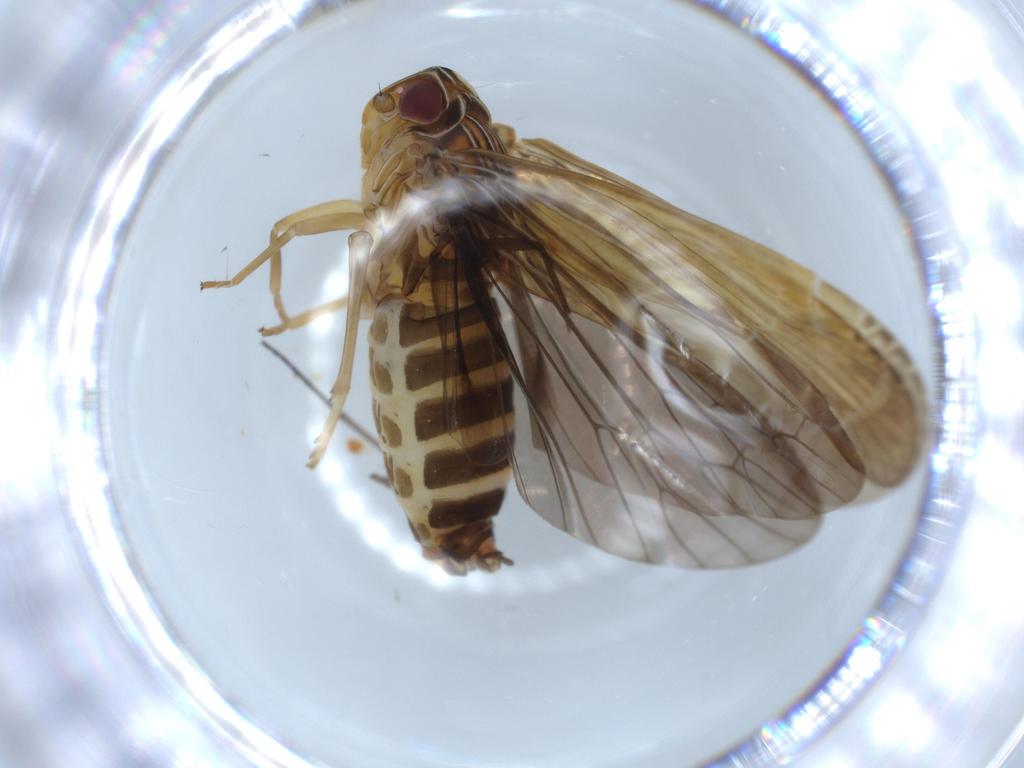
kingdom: Animalia
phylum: Arthropoda
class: Insecta
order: Hemiptera
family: Achilidae
